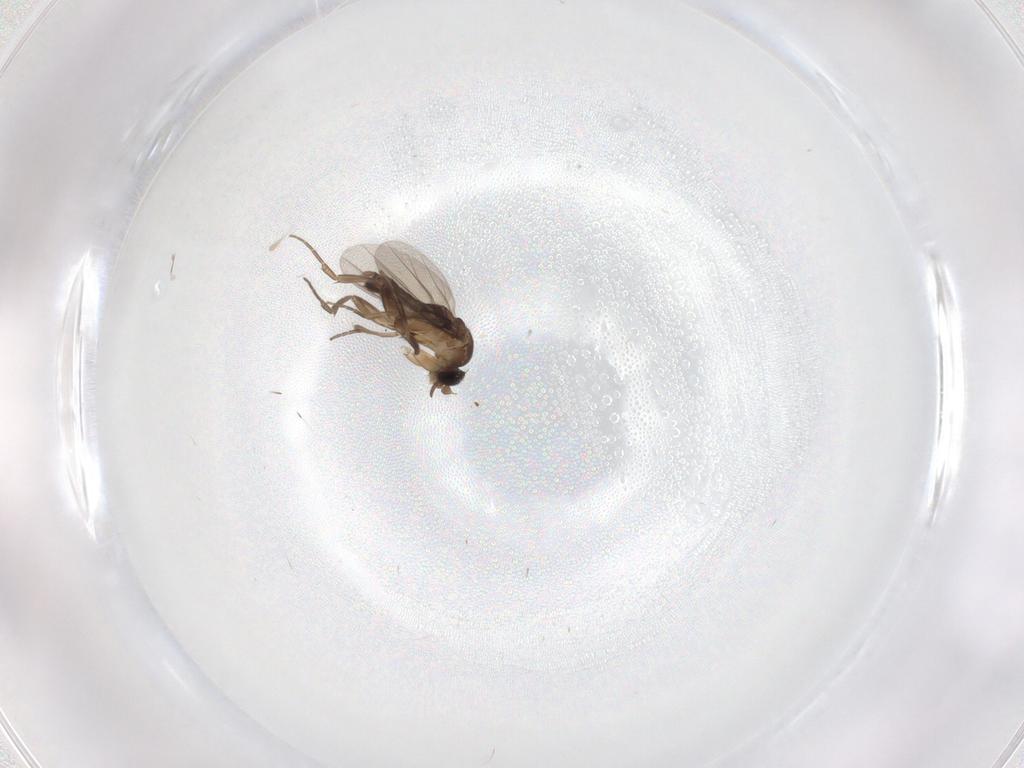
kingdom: Animalia
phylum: Arthropoda
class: Insecta
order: Diptera
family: Phoridae
